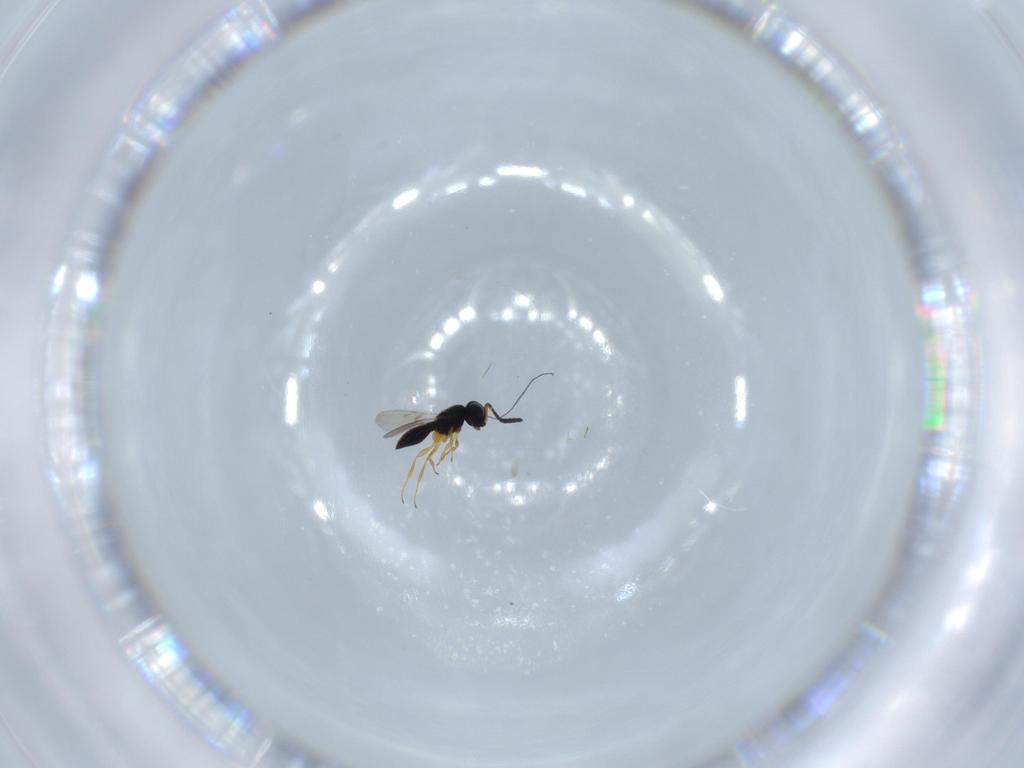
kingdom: Animalia
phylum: Arthropoda
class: Insecta
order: Hymenoptera
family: Scelionidae
